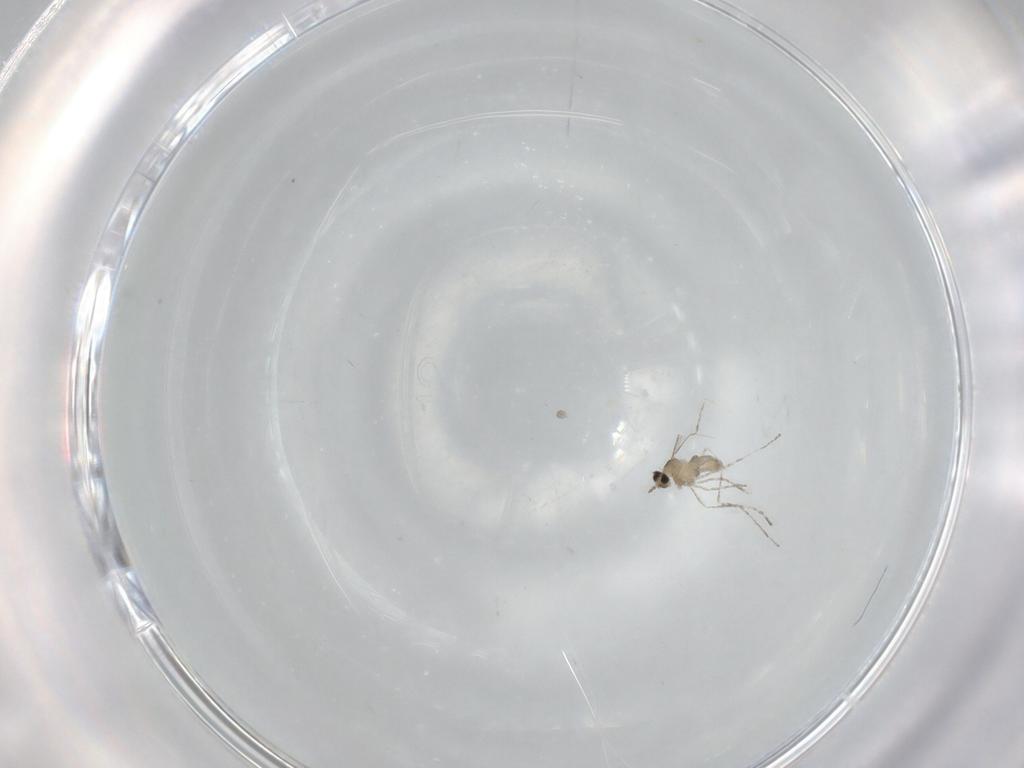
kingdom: Animalia
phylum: Arthropoda
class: Insecta
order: Diptera
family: Cecidomyiidae
